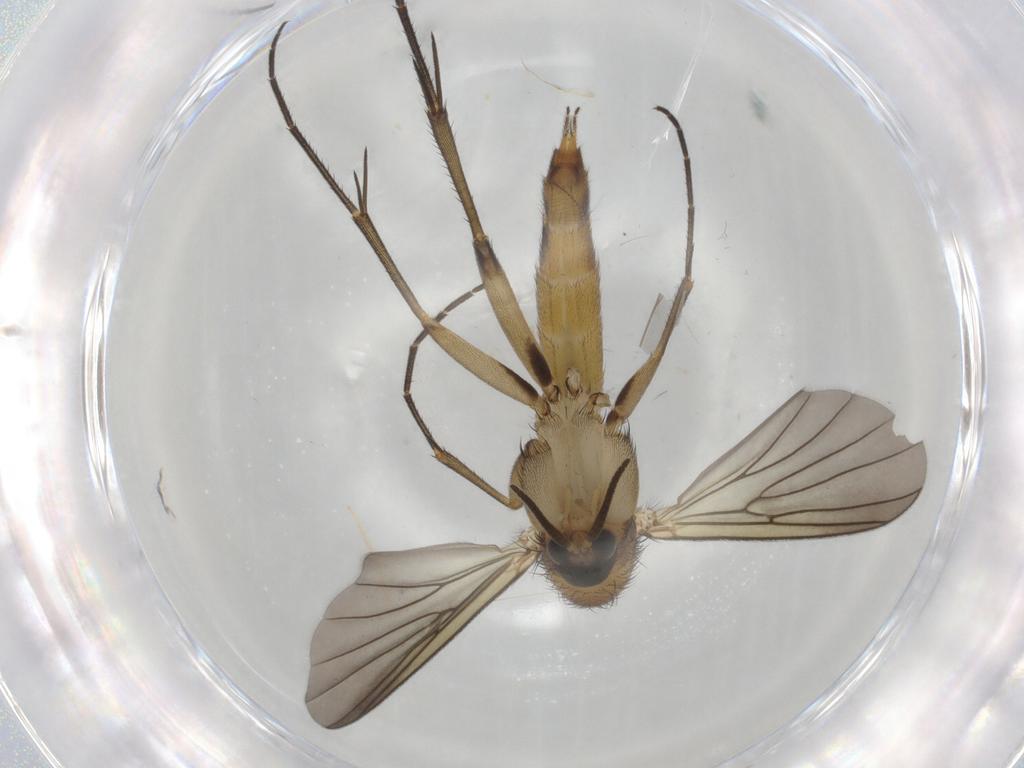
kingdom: Animalia
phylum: Arthropoda
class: Insecta
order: Diptera
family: Mycetophilidae
